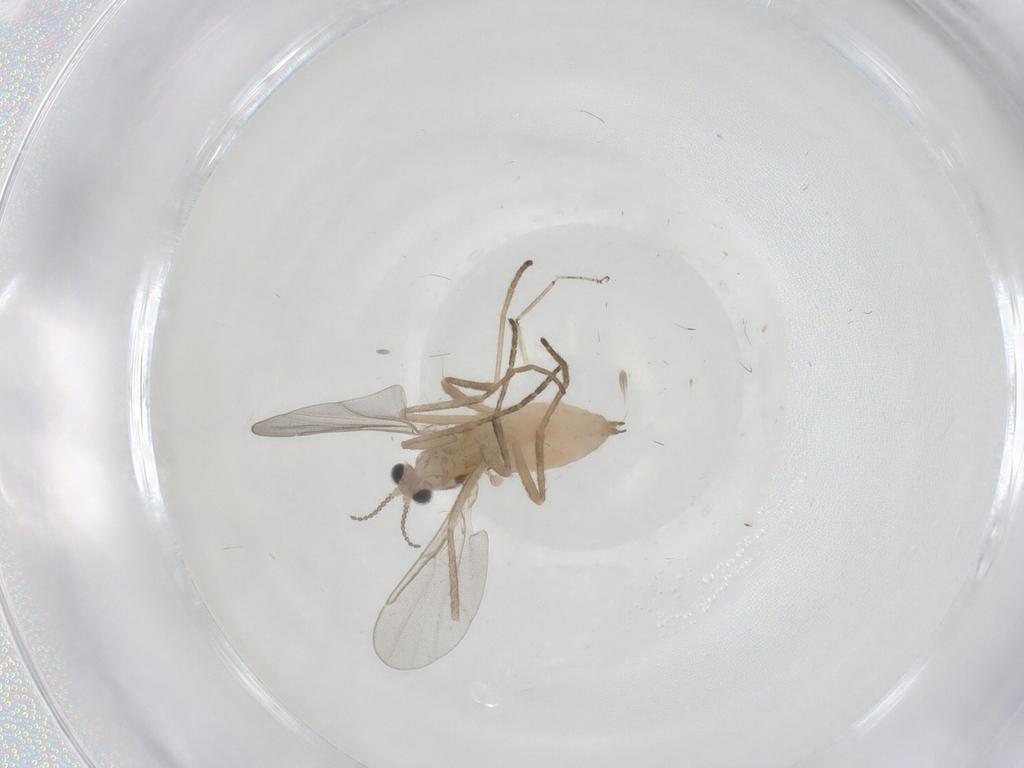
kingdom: Animalia
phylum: Arthropoda
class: Insecta
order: Diptera
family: Cecidomyiidae
